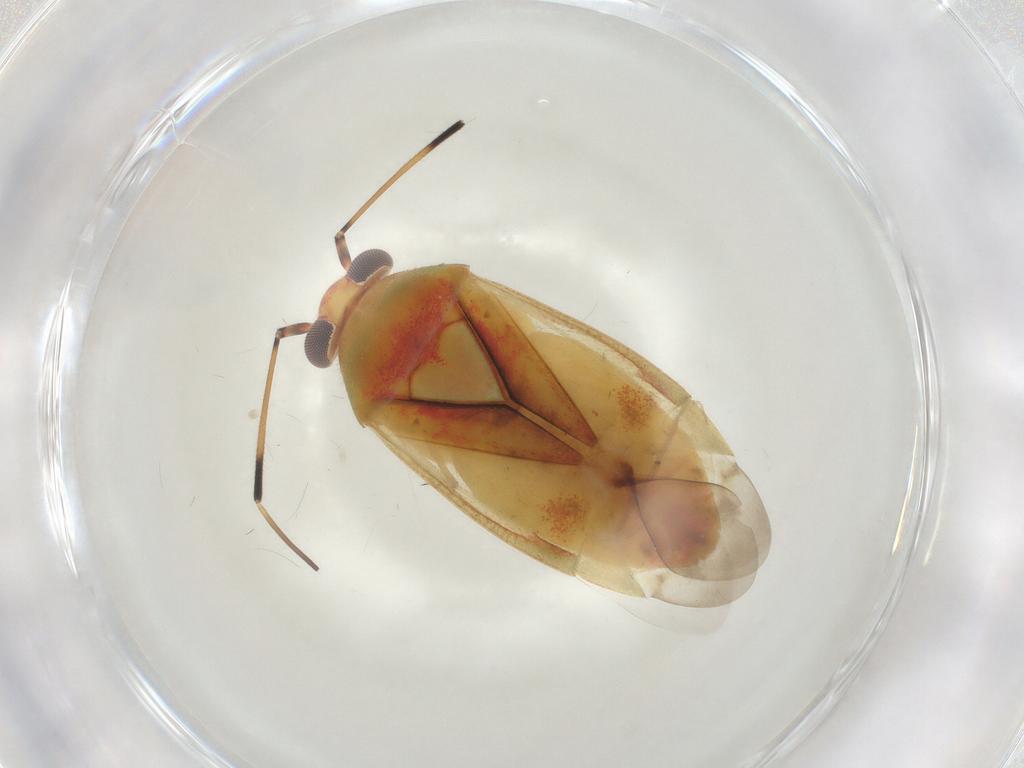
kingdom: Animalia
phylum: Arthropoda
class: Insecta
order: Hemiptera
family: Miridae
